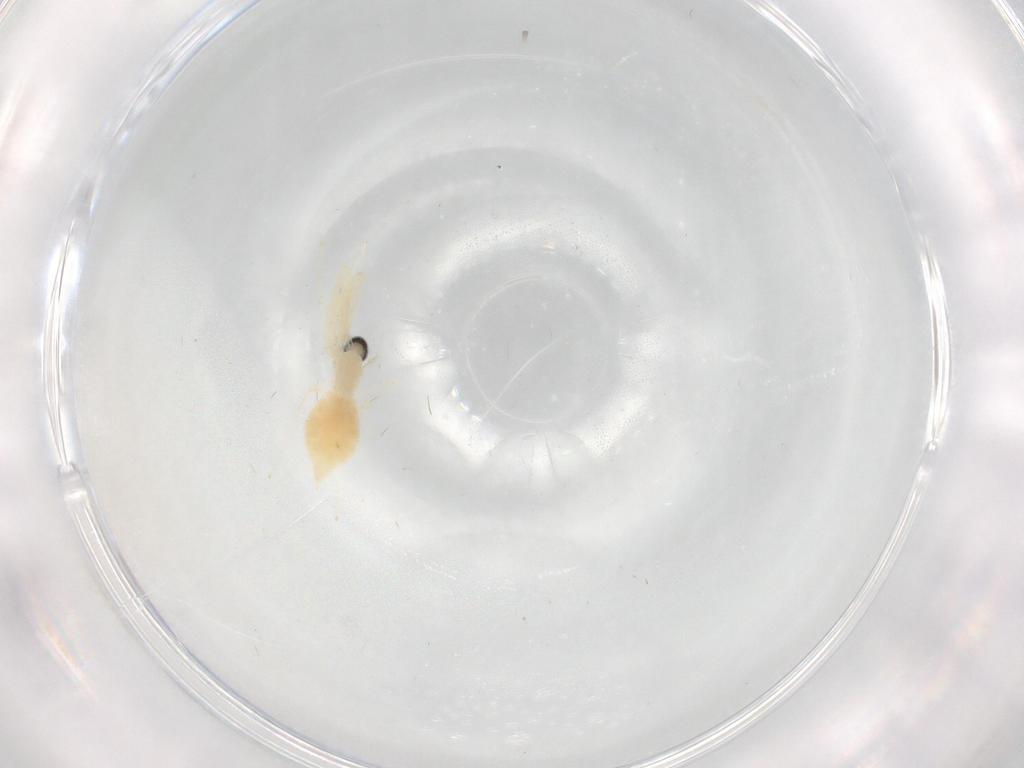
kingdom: Animalia
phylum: Arthropoda
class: Insecta
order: Diptera
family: Cecidomyiidae
